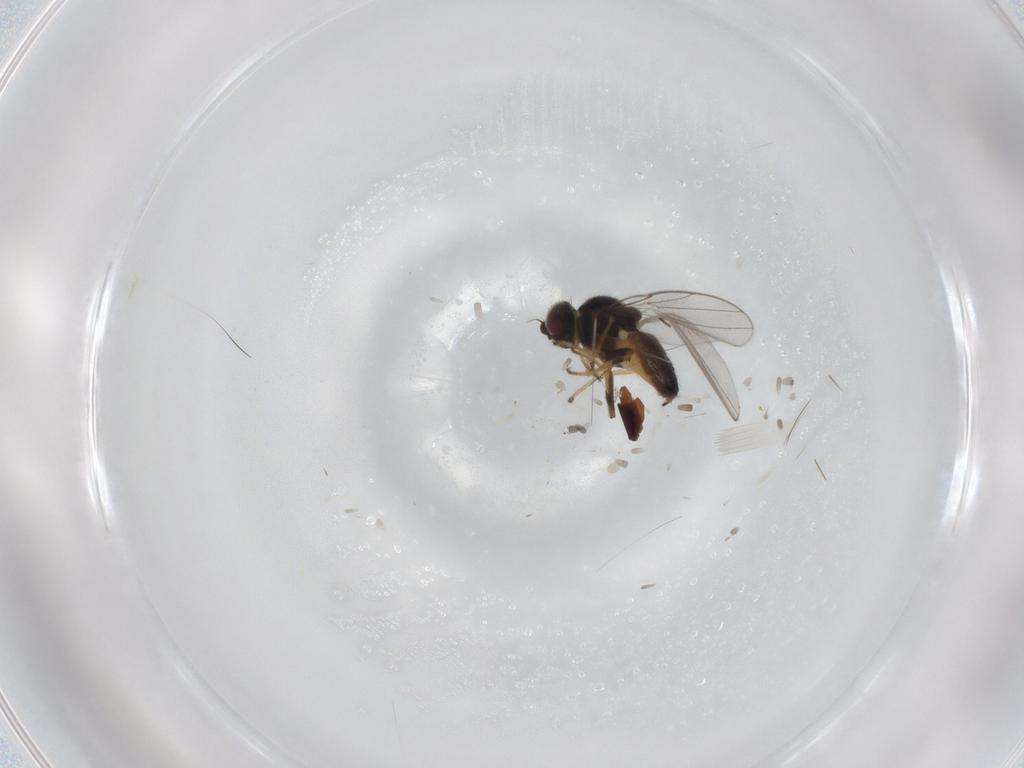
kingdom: Animalia
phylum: Arthropoda
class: Insecta
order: Diptera
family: Chloropidae
